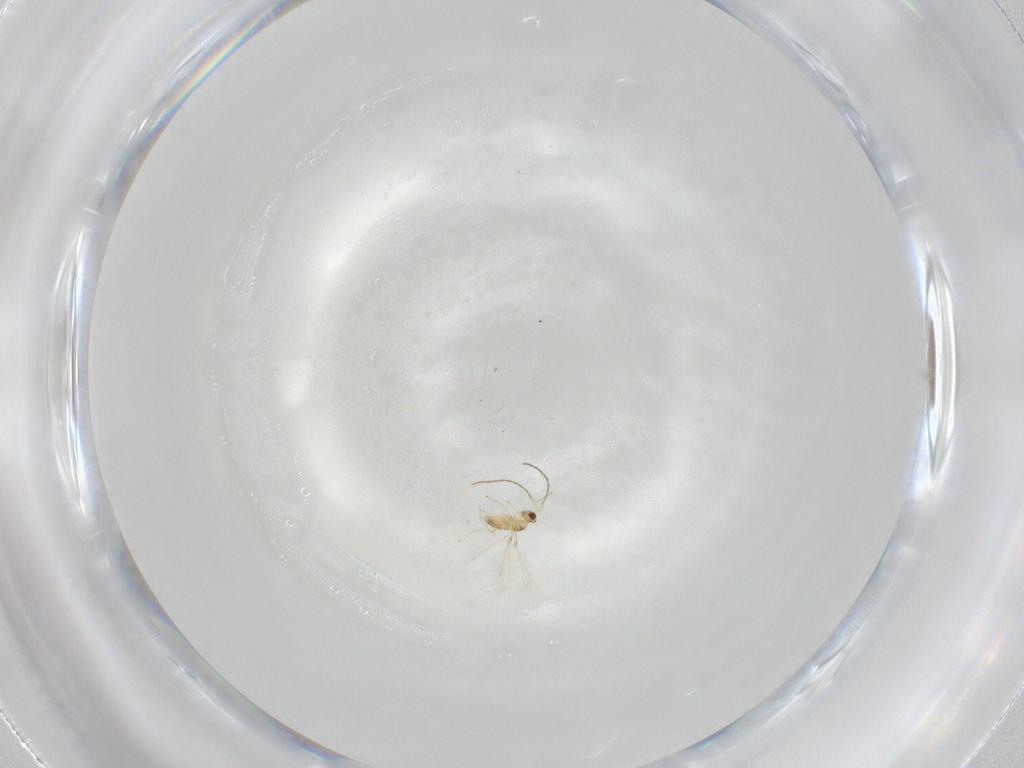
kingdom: Animalia
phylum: Arthropoda
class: Insecta
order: Hymenoptera
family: Mymaridae
